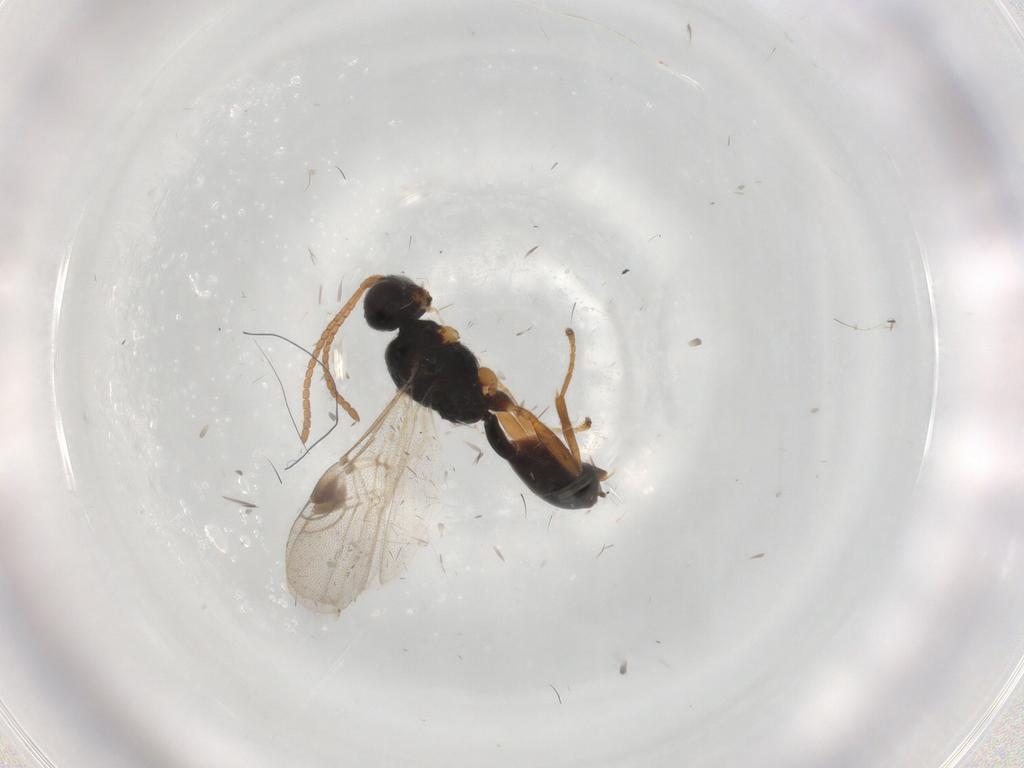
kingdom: Animalia
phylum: Arthropoda
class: Insecta
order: Hymenoptera
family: Braconidae
